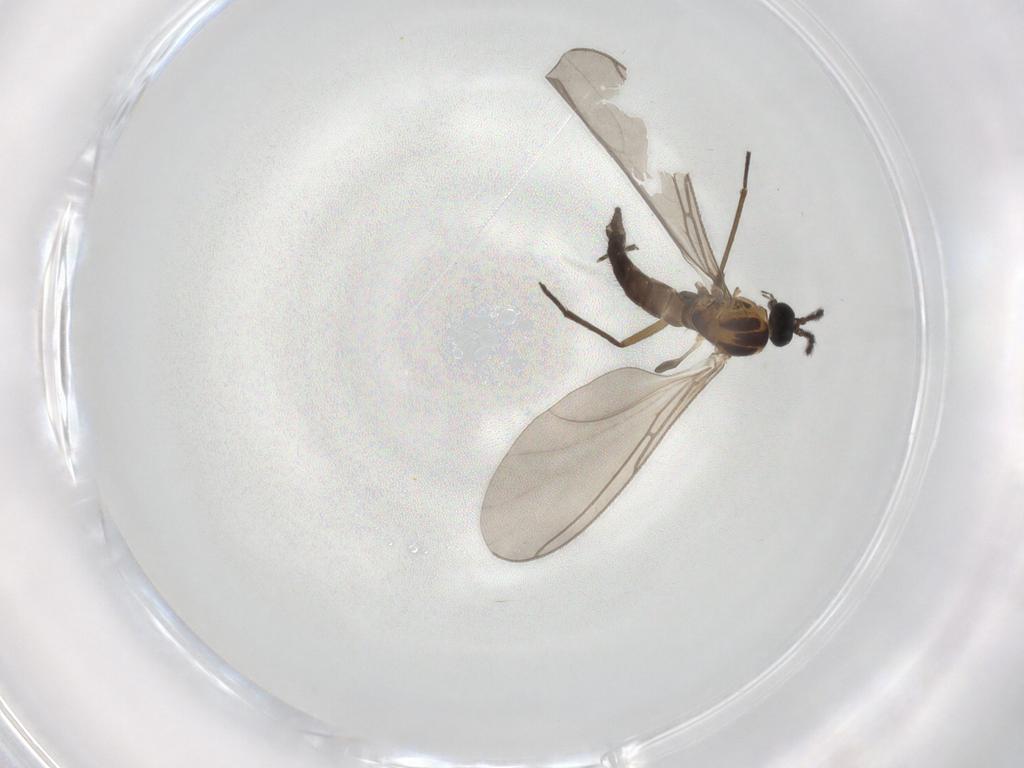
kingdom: Animalia
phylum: Arthropoda
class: Insecta
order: Diptera
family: Sciaridae
